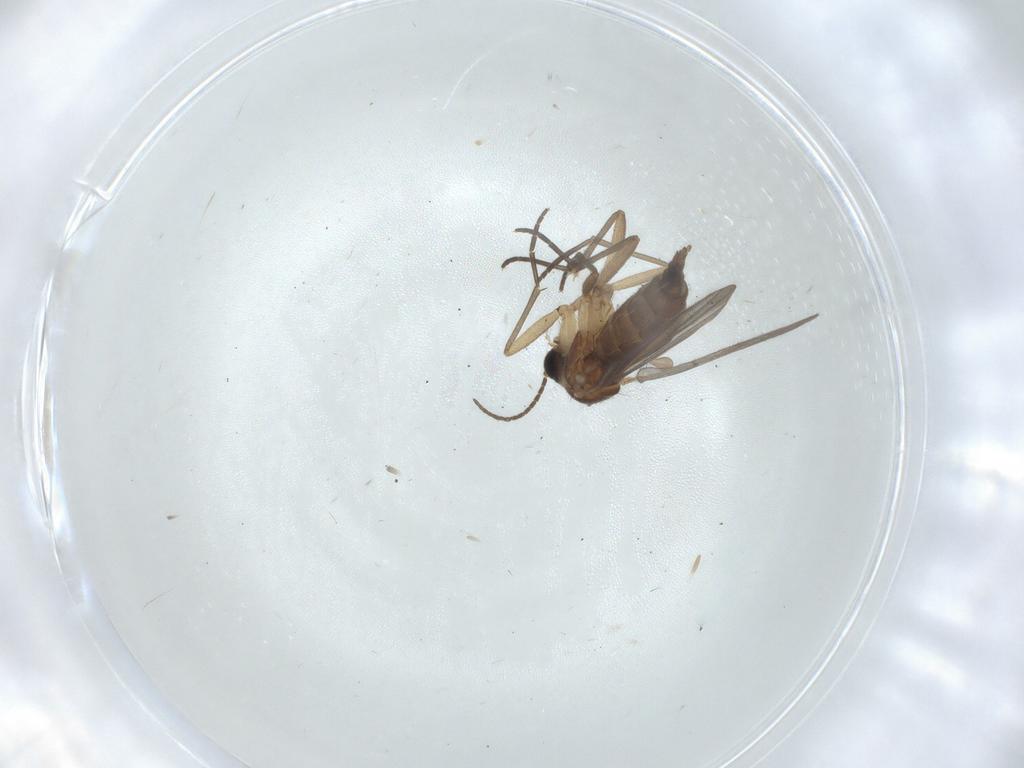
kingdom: Animalia
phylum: Arthropoda
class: Insecta
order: Diptera
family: Sciaridae
